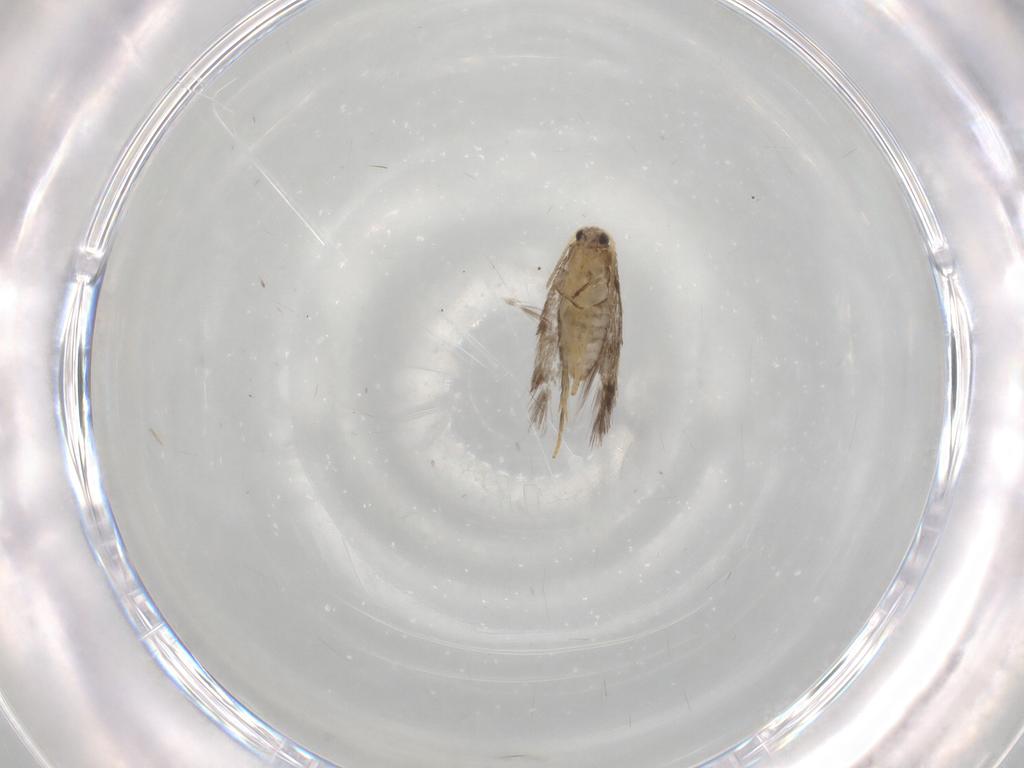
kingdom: Animalia
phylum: Arthropoda
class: Insecta
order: Lepidoptera
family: Nepticulidae
